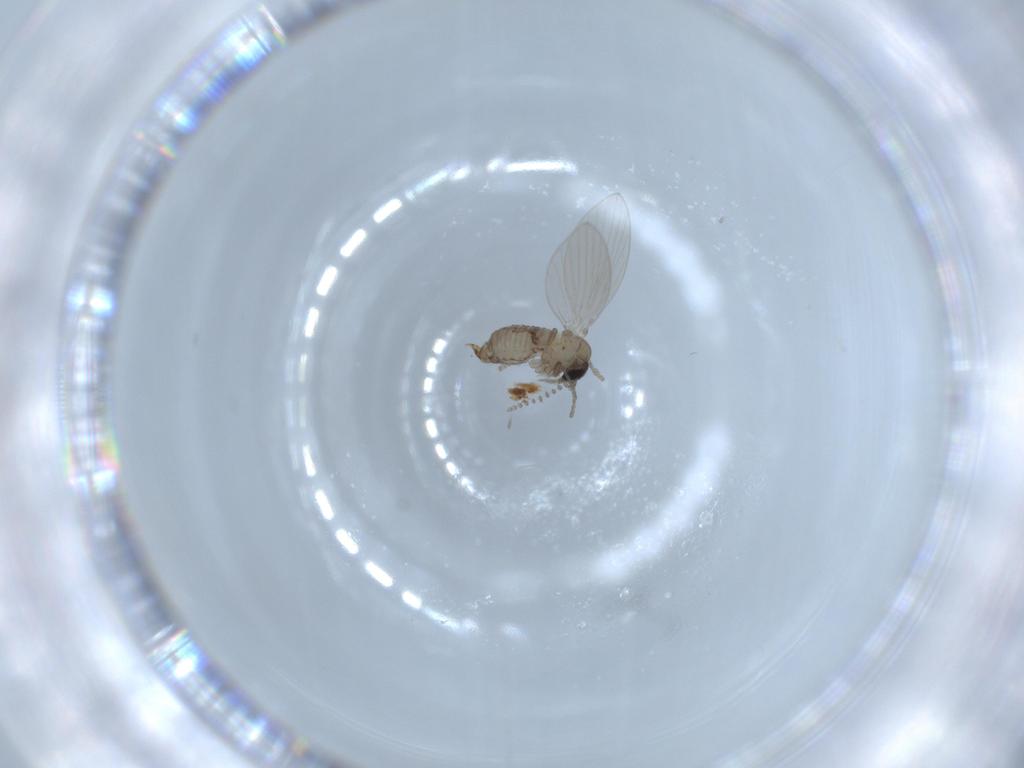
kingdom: Animalia
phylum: Arthropoda
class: Insecta
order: Diptera
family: Psychodidae
